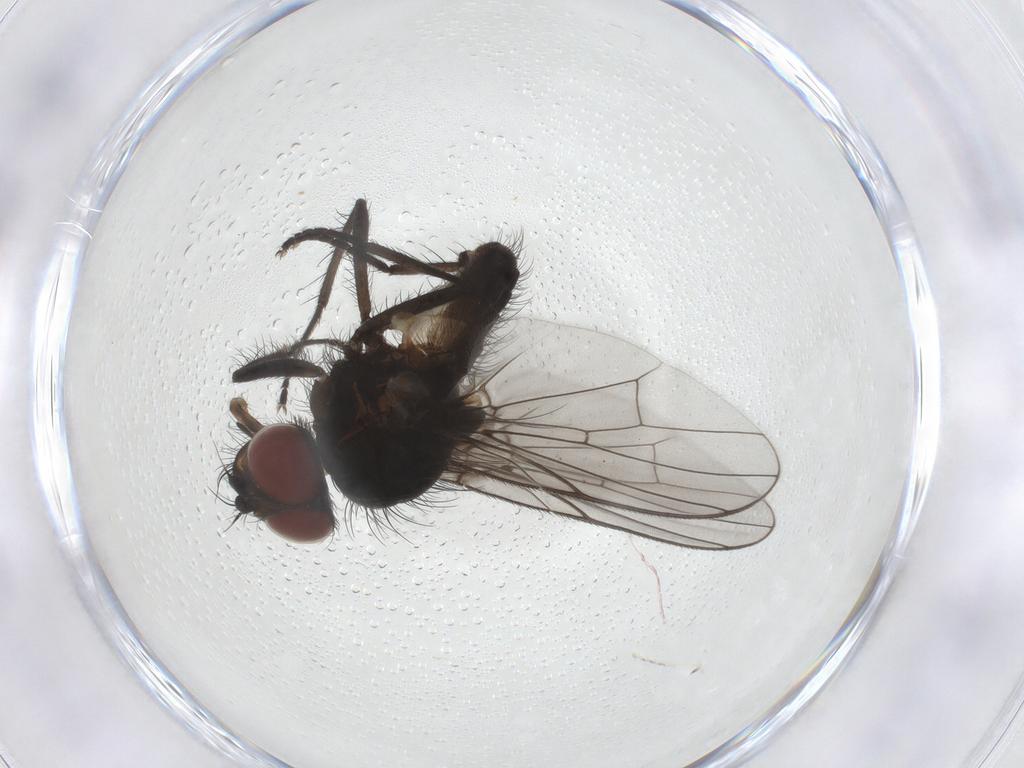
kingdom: Animalia
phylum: Arthropoda
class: Insecta
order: Diptera
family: Anthomyiidae
